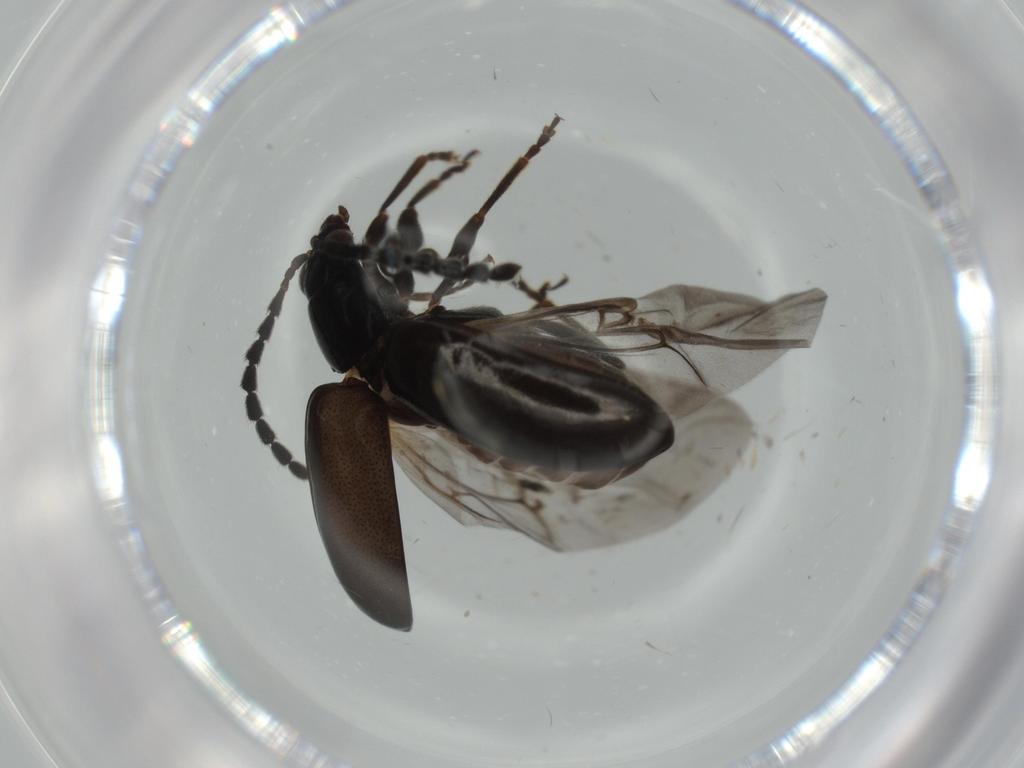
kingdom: Animalia
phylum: Arthropoda
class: Insecta
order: Coleoptera
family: Chrysomelidae
